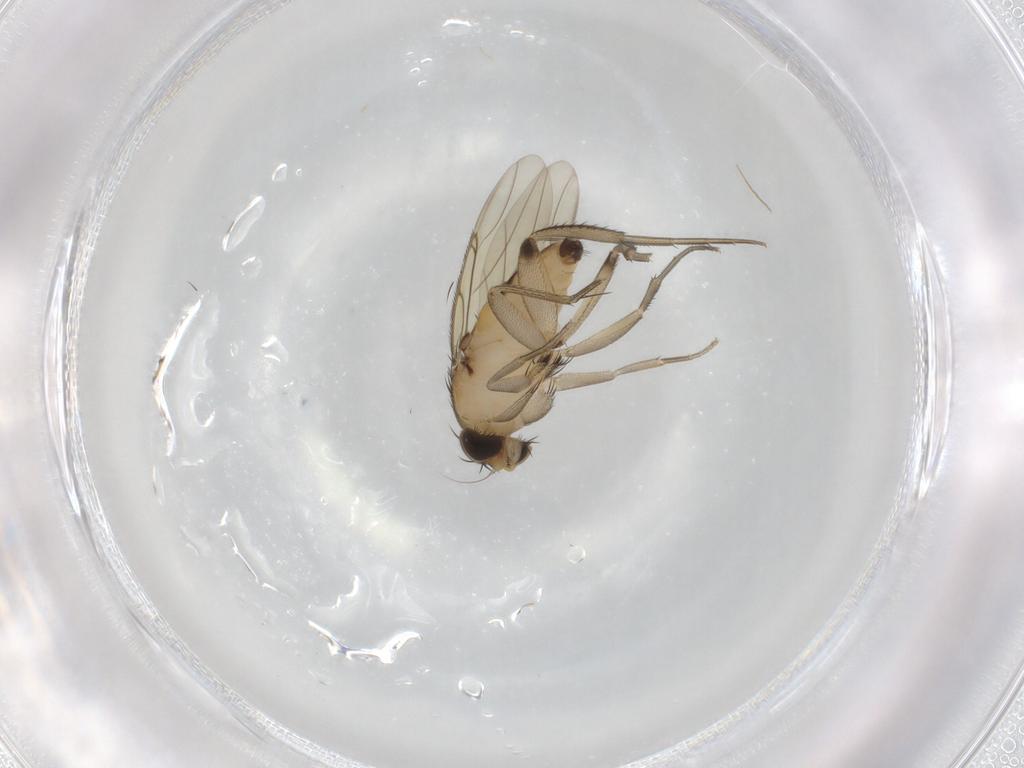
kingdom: Animalia
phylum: Arthropoda
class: Insecta
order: Diptera
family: Phoridae
